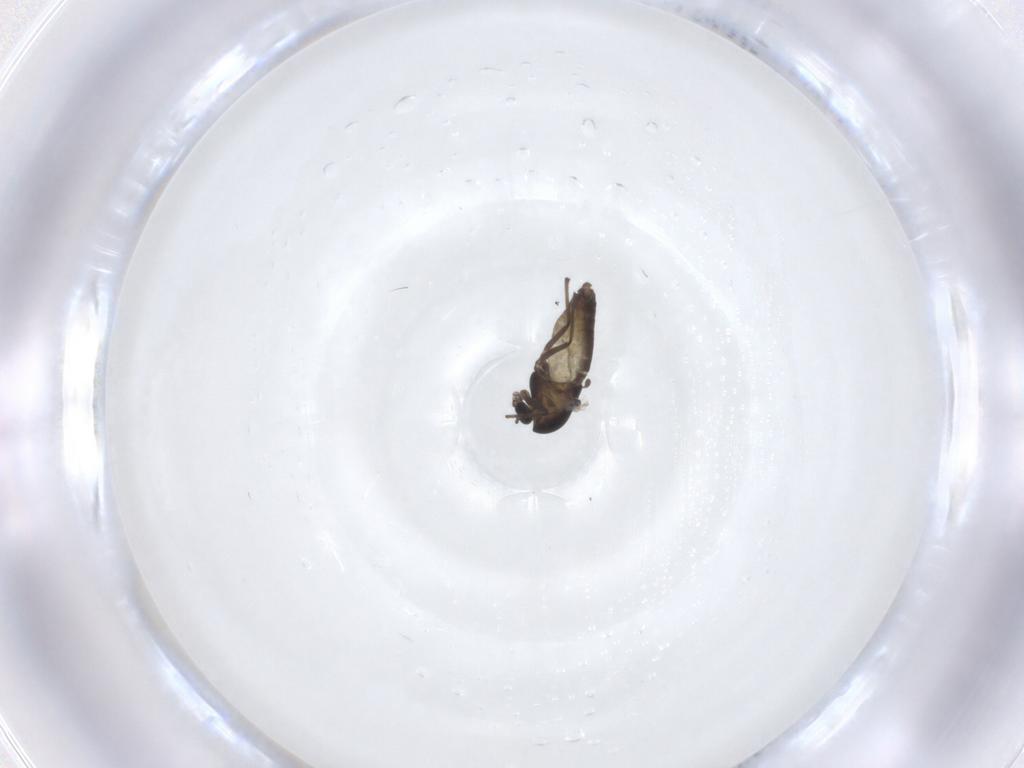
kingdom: Animalia
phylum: Arthropoda
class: Insecta
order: Diptera
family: Chironomidae
